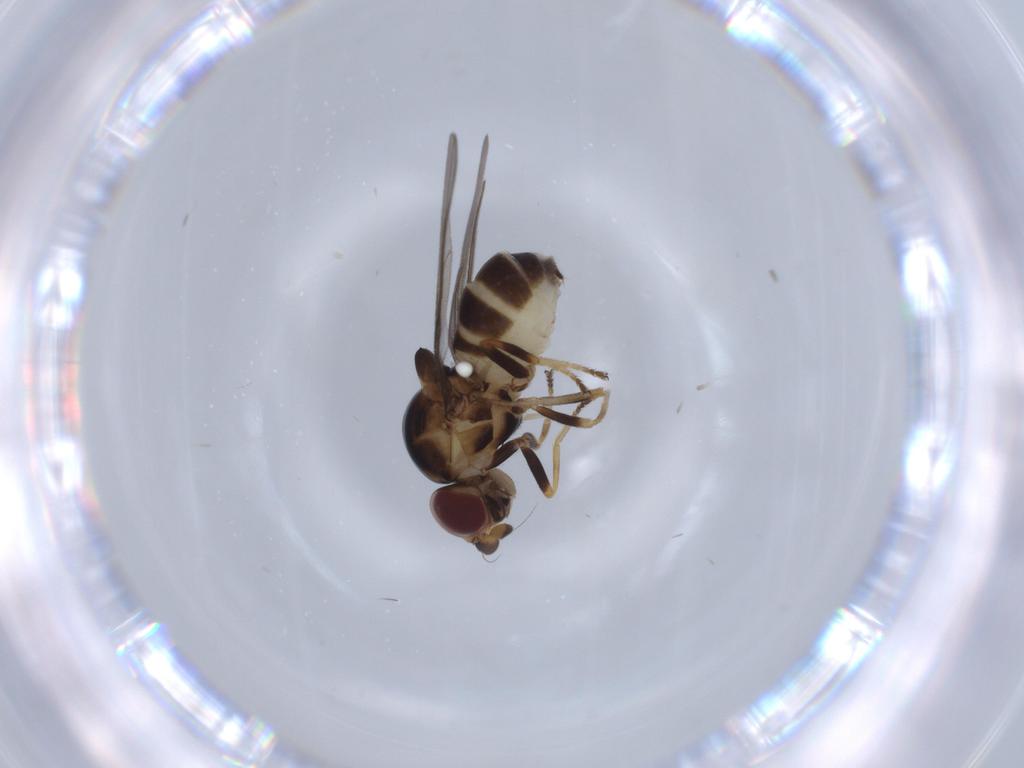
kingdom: Animalia
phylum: Arthropoda
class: Insecta
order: Diptera
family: Chloropidae
